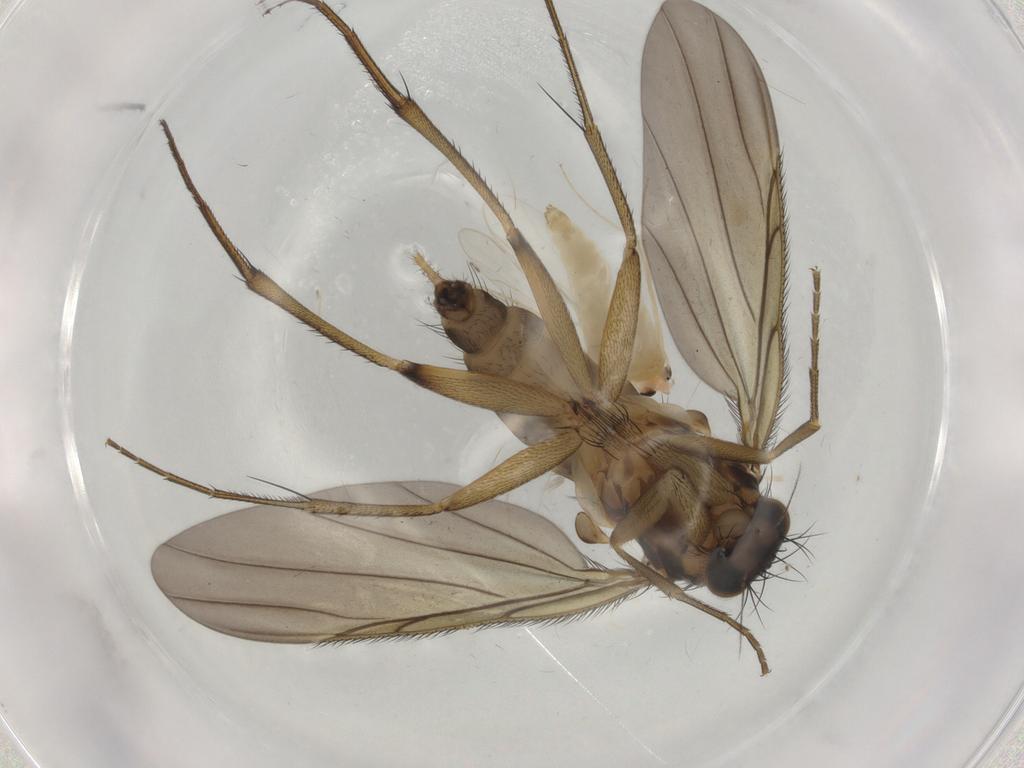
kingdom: Animalia
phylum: Arthropoda
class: Insecta
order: Diptera
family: Phoridae
